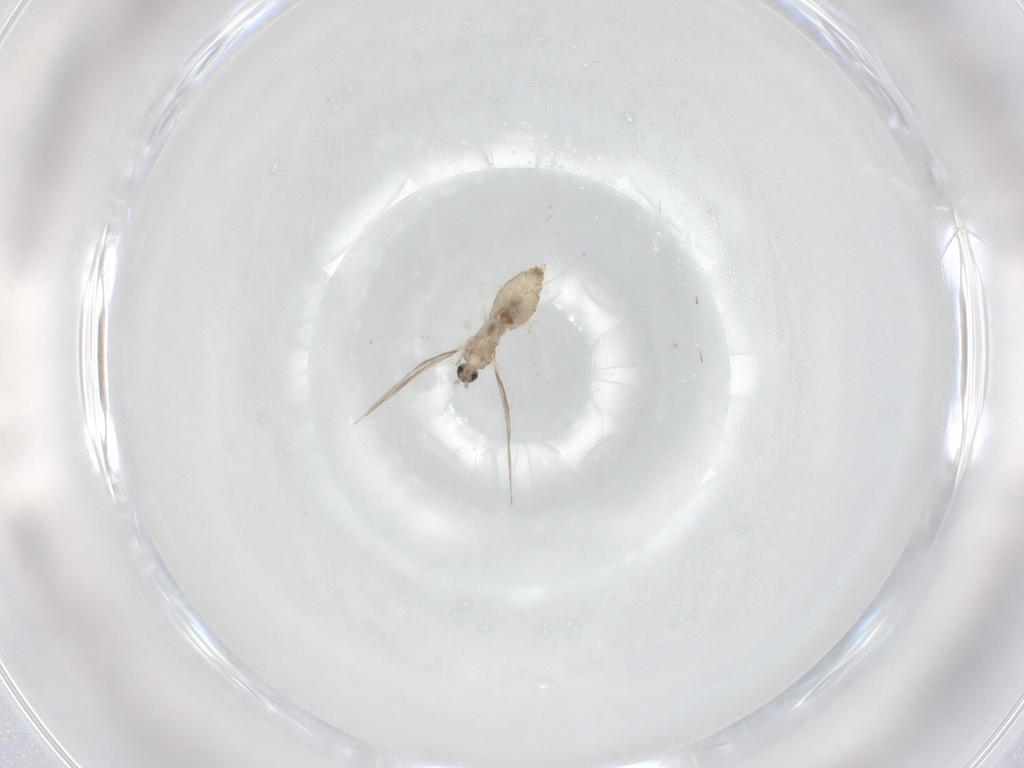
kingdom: Animalia
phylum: Arthropoda
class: Insecta
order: Diptera
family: Cecidomyiidae
